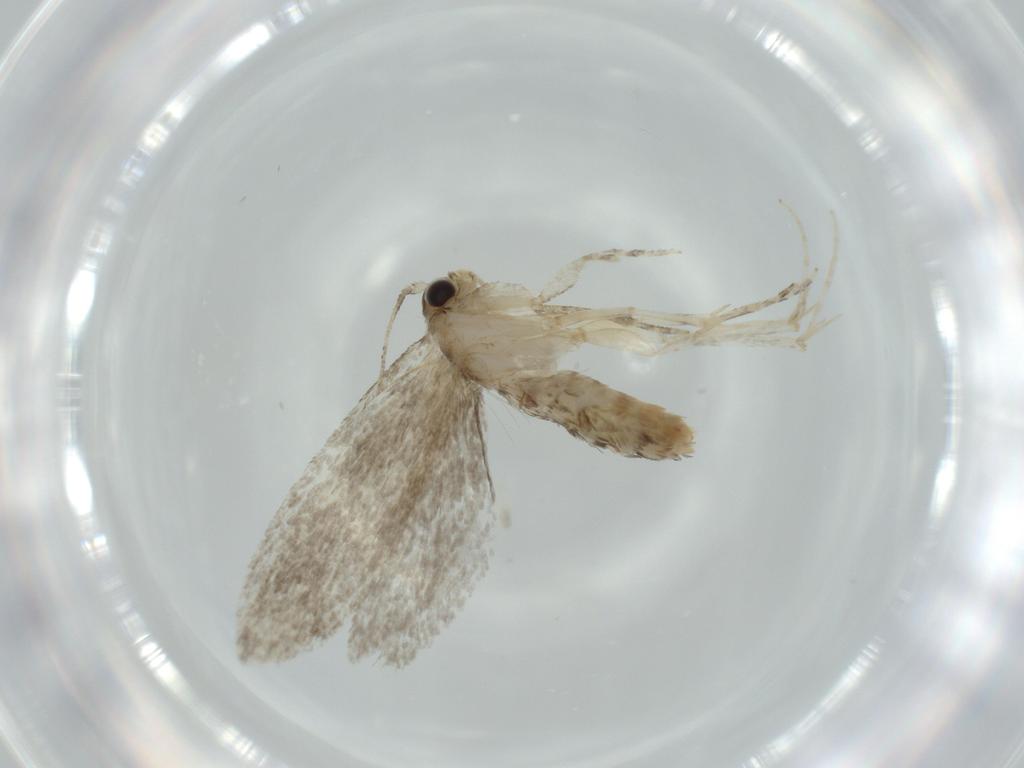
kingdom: Animalia
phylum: Arthropoda
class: Insecta
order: Lepidoptera
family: Tineidae
